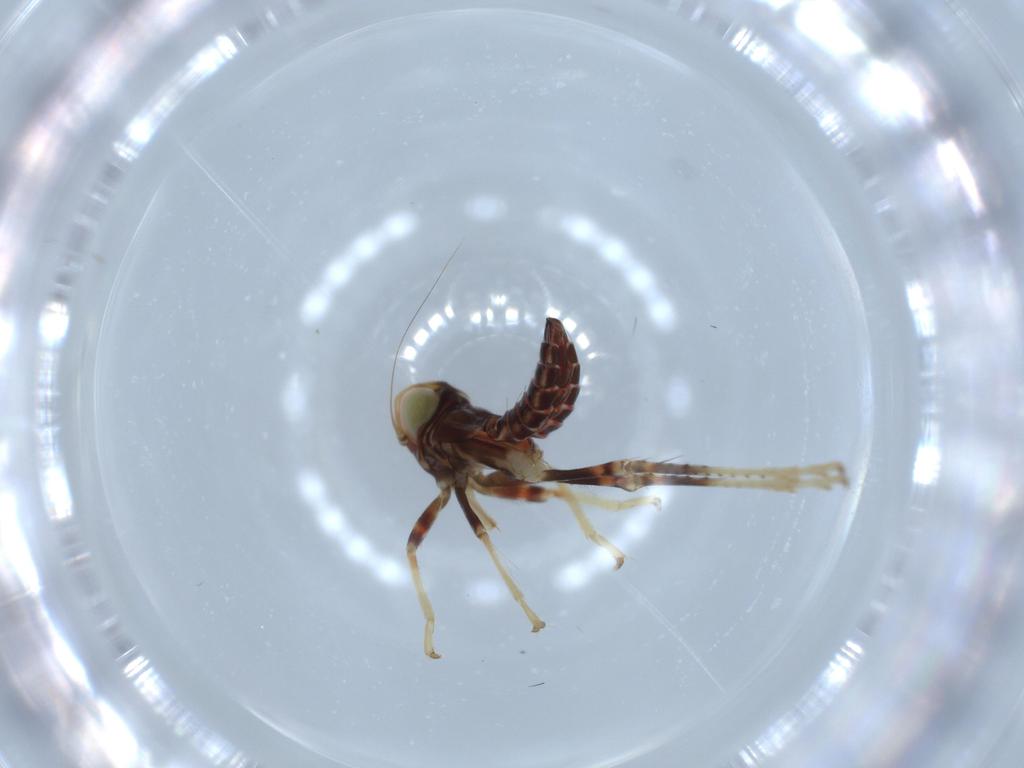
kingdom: Animalia
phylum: Arthropoda
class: Insecta
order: Hemiptera
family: Cicadellidae
